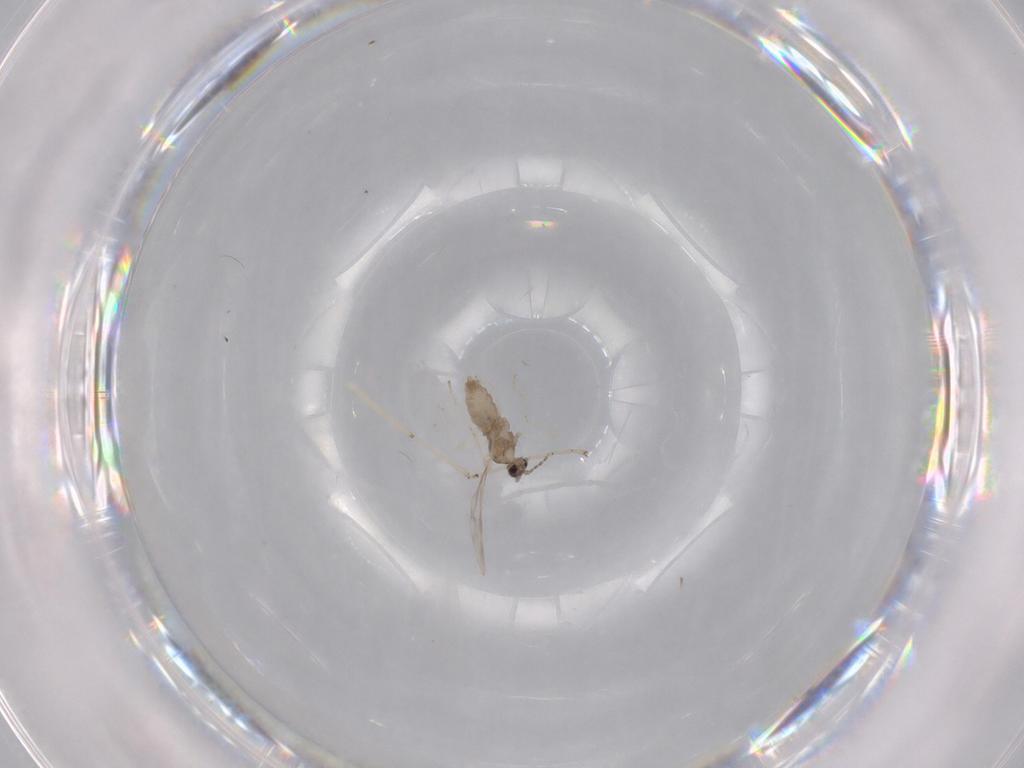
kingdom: Animalia
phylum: Arthropoda
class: Insecta
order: Diptera
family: Cecidomyiidae
